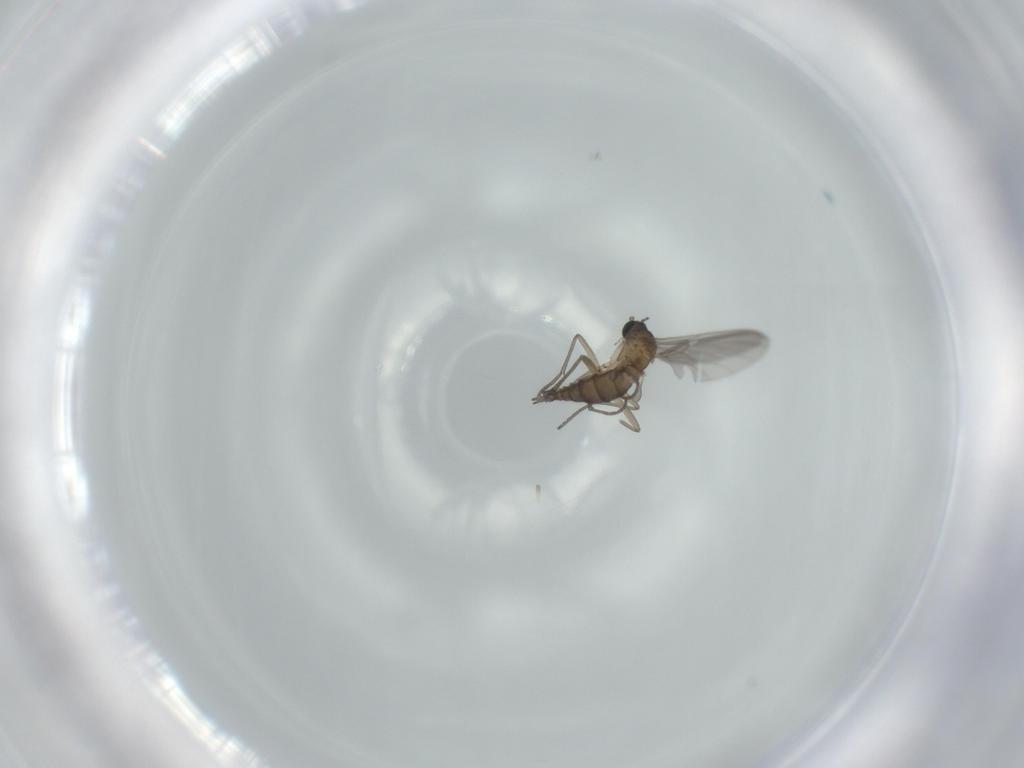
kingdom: Animalia
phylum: Arthropoda
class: Insecta
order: Diptera
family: Sciaridae
